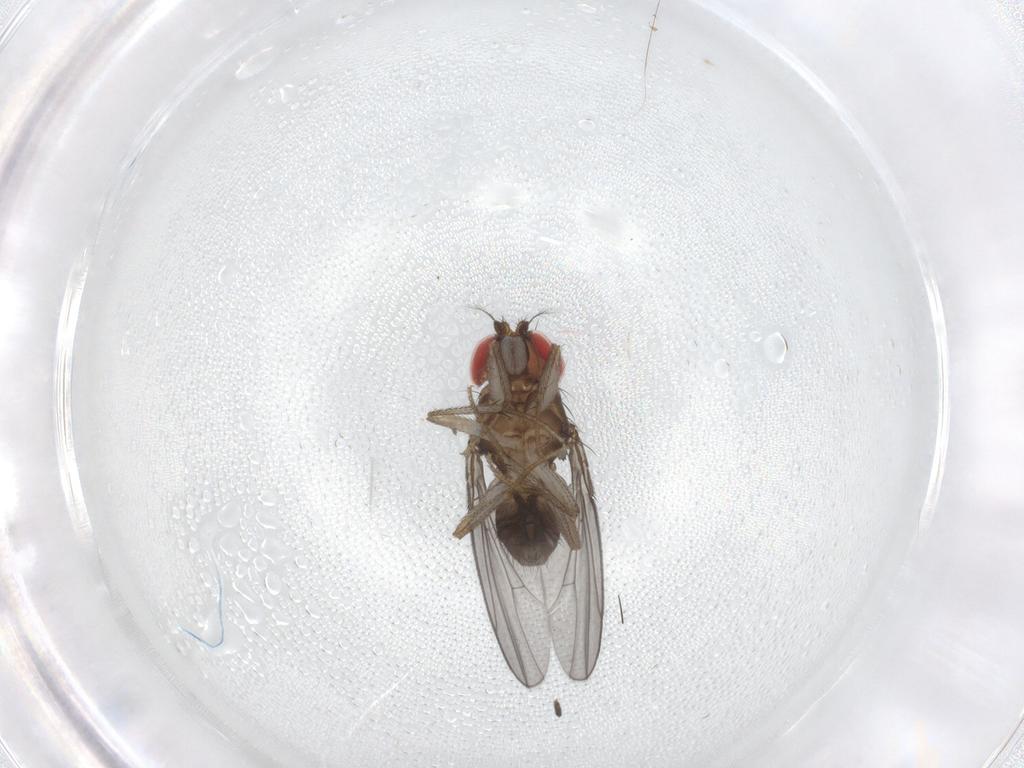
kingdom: Animalia
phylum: Arthropoda
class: Insecta
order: Diptera
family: Drosophilidae
